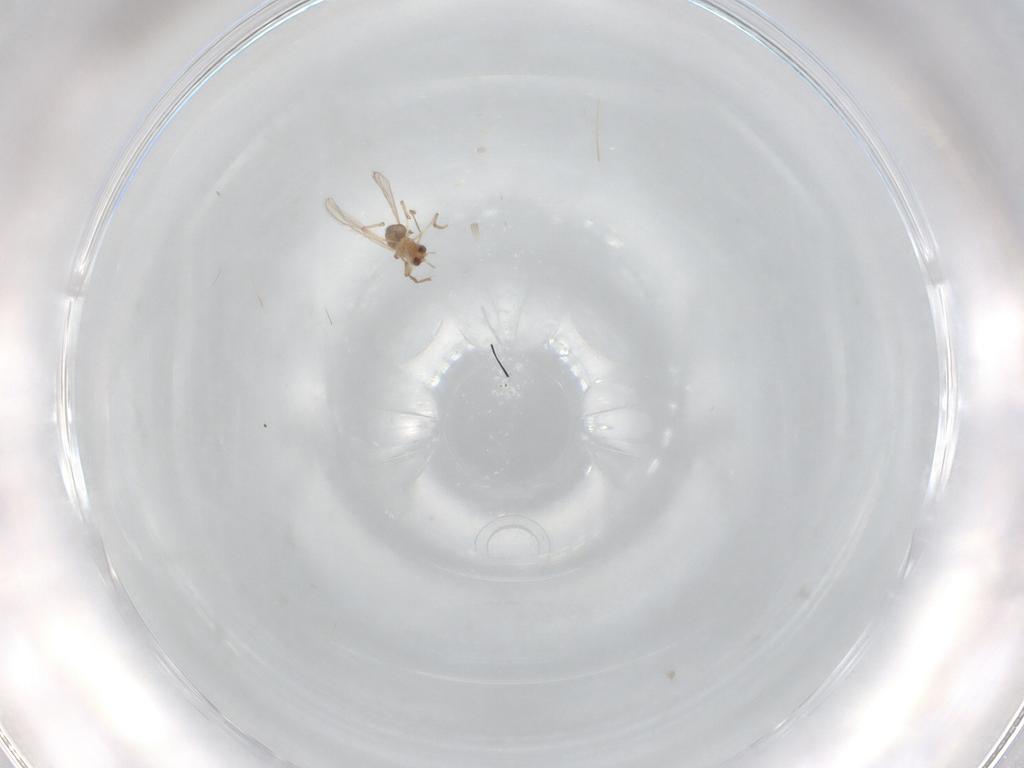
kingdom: Animalia
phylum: Arthropoda
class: Insecta
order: Diptera
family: Chironomidae
